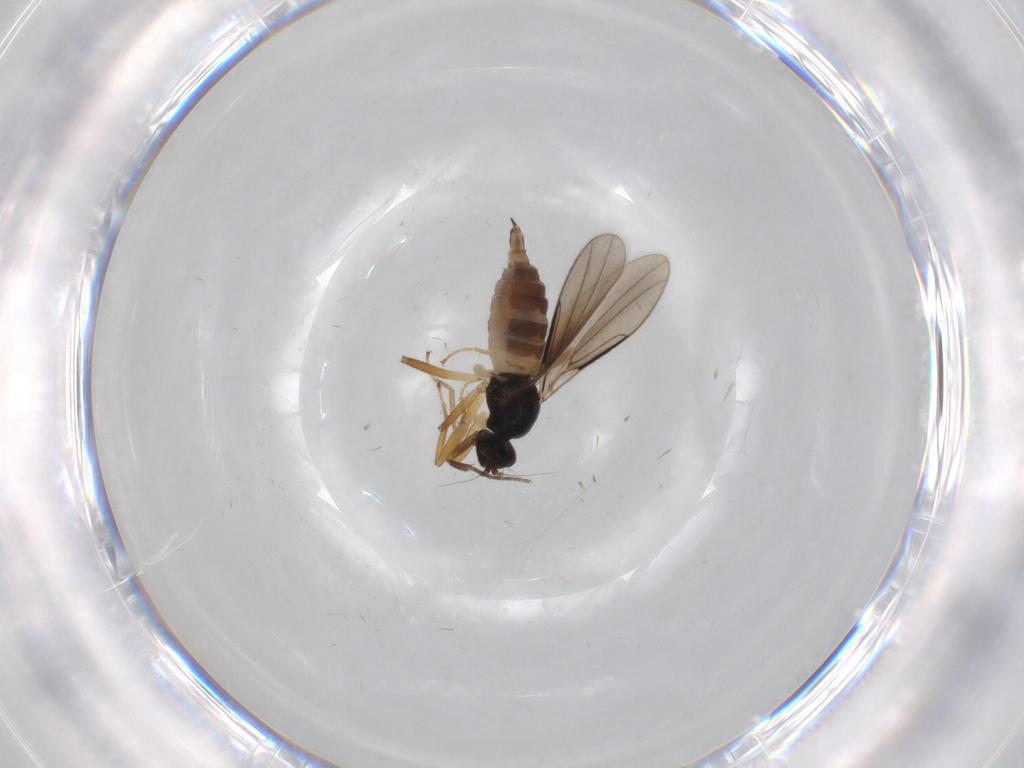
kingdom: Animalia
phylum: Arthropoda
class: Insecta
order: Diptera
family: Hybotidae
